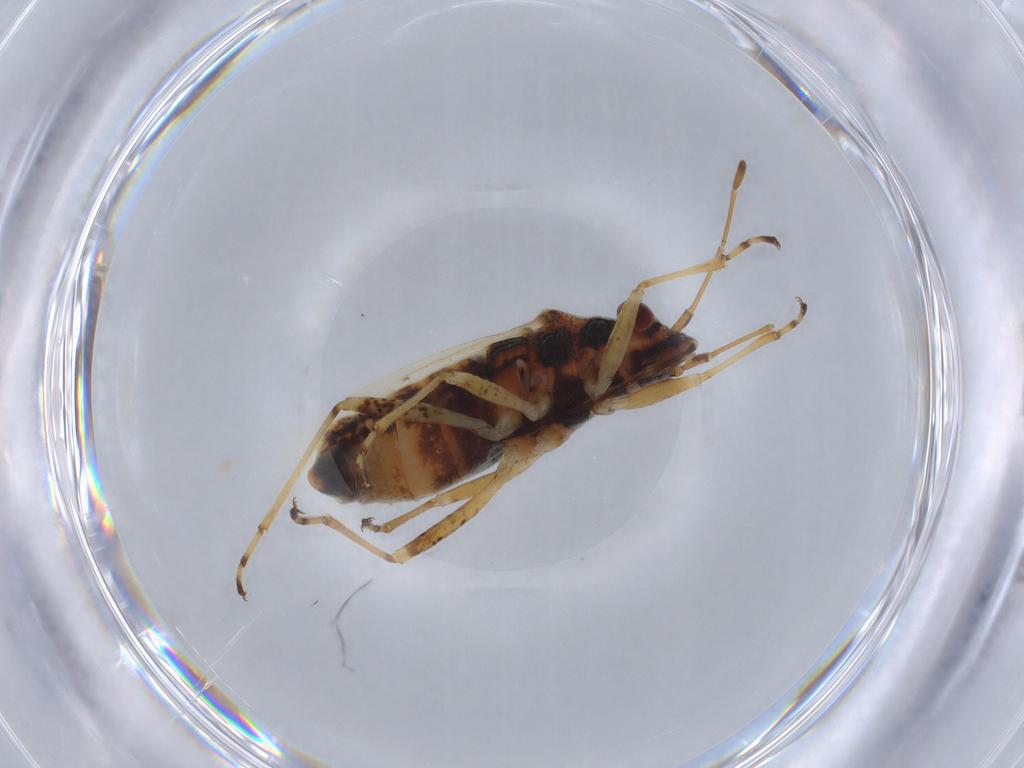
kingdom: Animalia
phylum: Arthropoda
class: Insecta
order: Hemiptera
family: Lygaeidae
